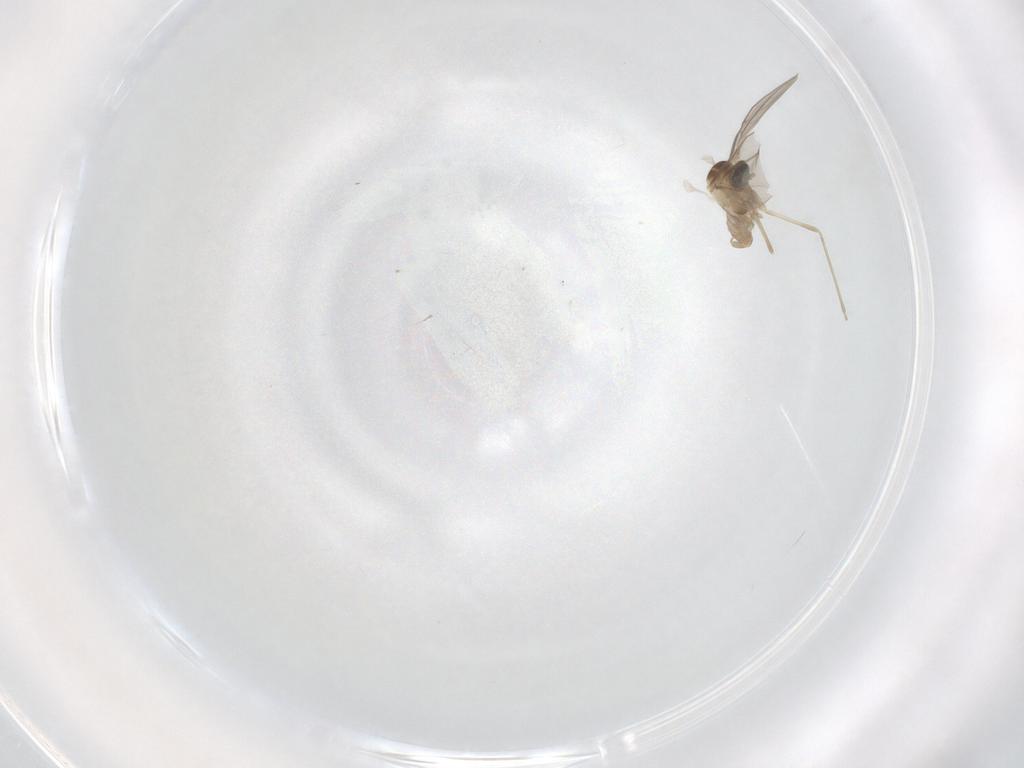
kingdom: Animalia
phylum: Arthropoda
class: Insecta
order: Diptera
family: Cecidomyiidae
